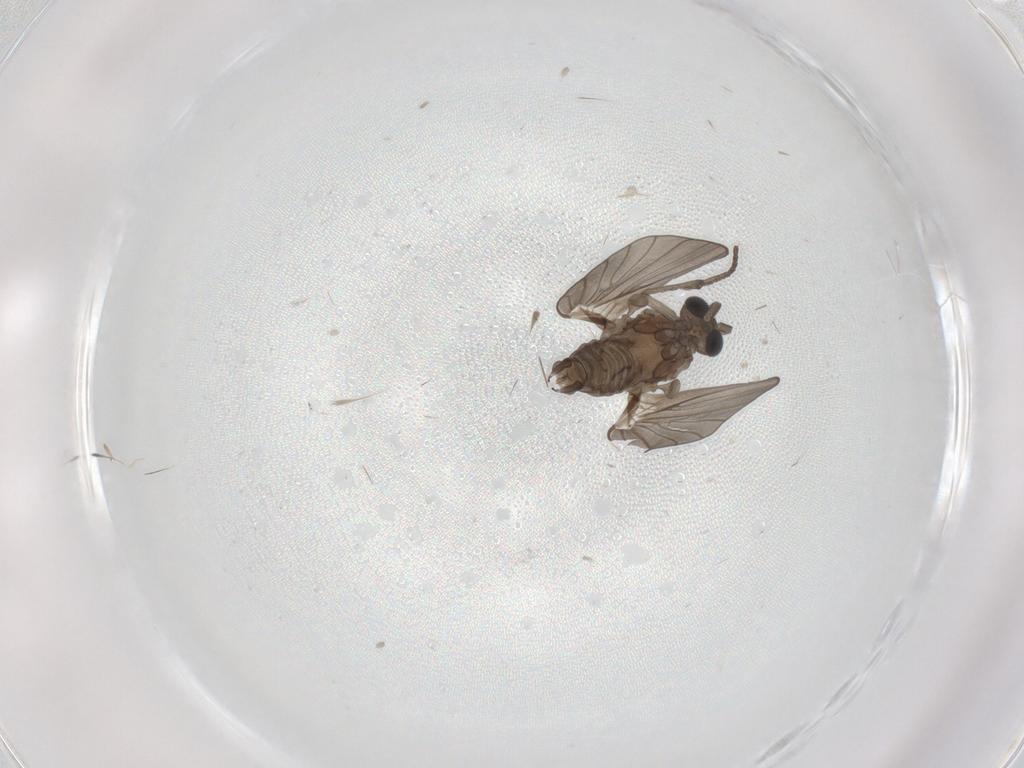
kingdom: Animalia
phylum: Arthropoda
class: Insecta
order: Diptera
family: Psychodidae
